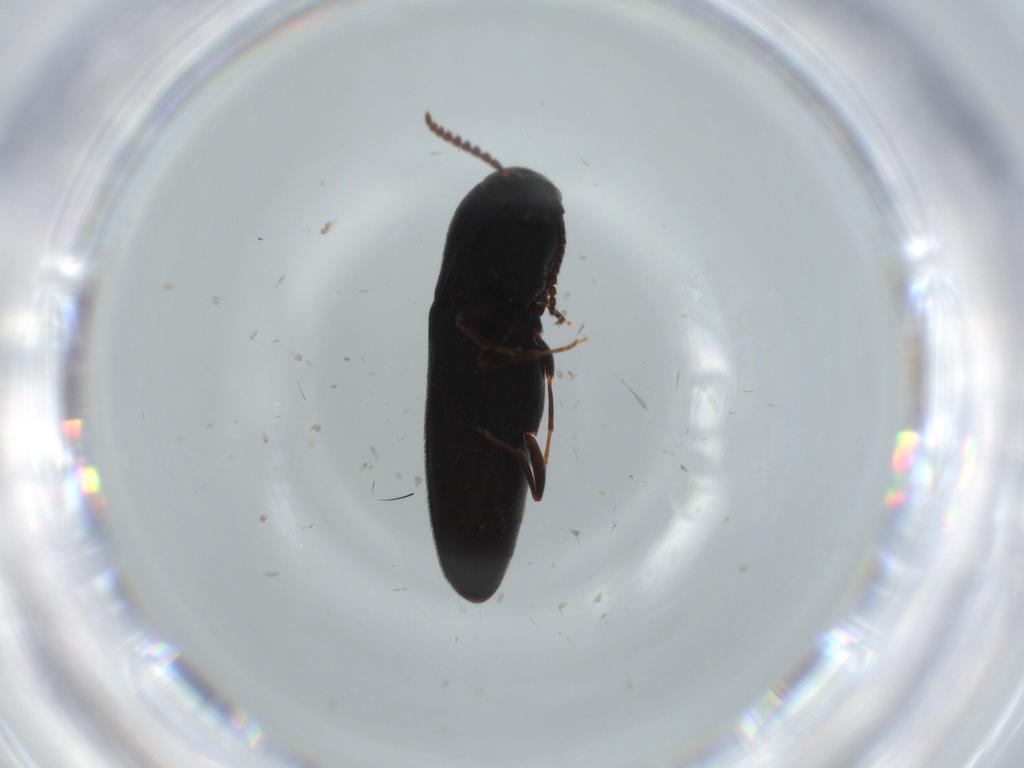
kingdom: Animalia
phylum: Arthropoda
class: Insecta
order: Coleoptera
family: Eucnemidae
